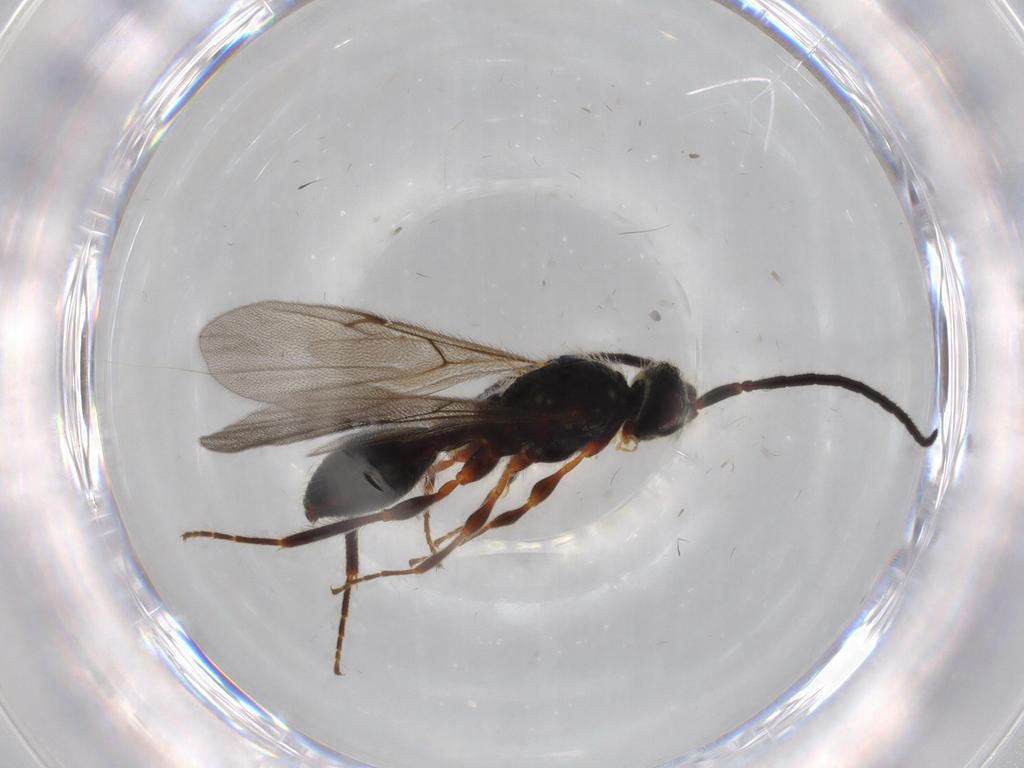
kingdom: Animalia
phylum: Arthropoda
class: Insecta
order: Hymenoptera
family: Diapriidae
